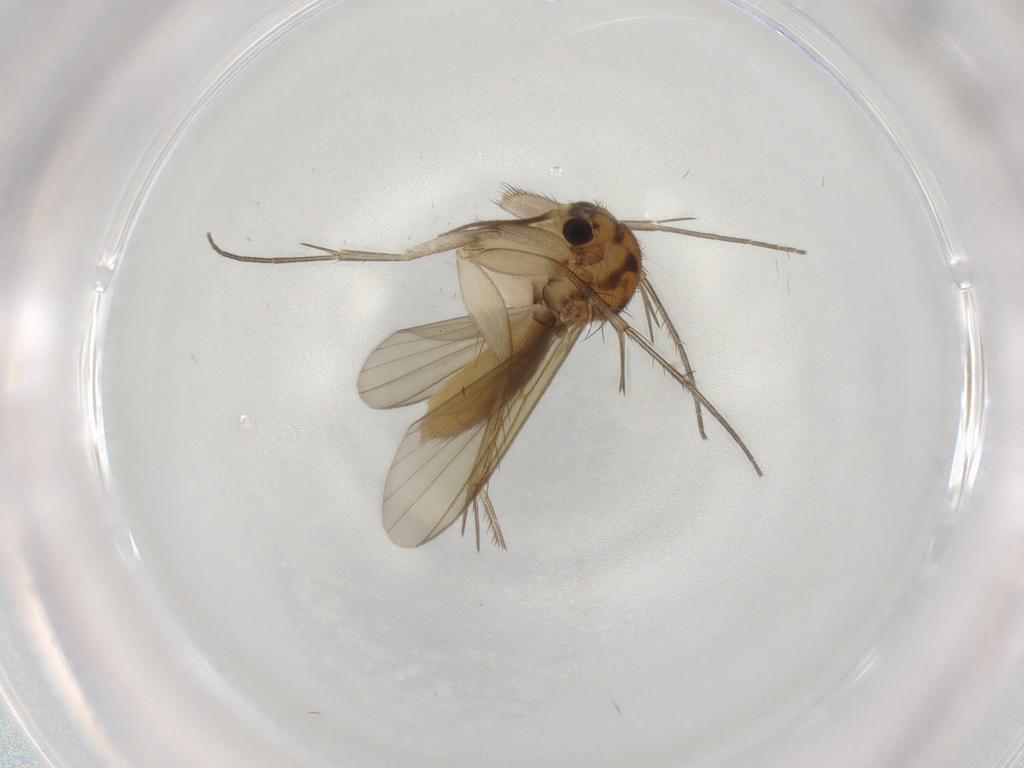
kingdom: Animalia
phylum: Arthropoda
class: Insecta
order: Diptera
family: Mycetophilidae
